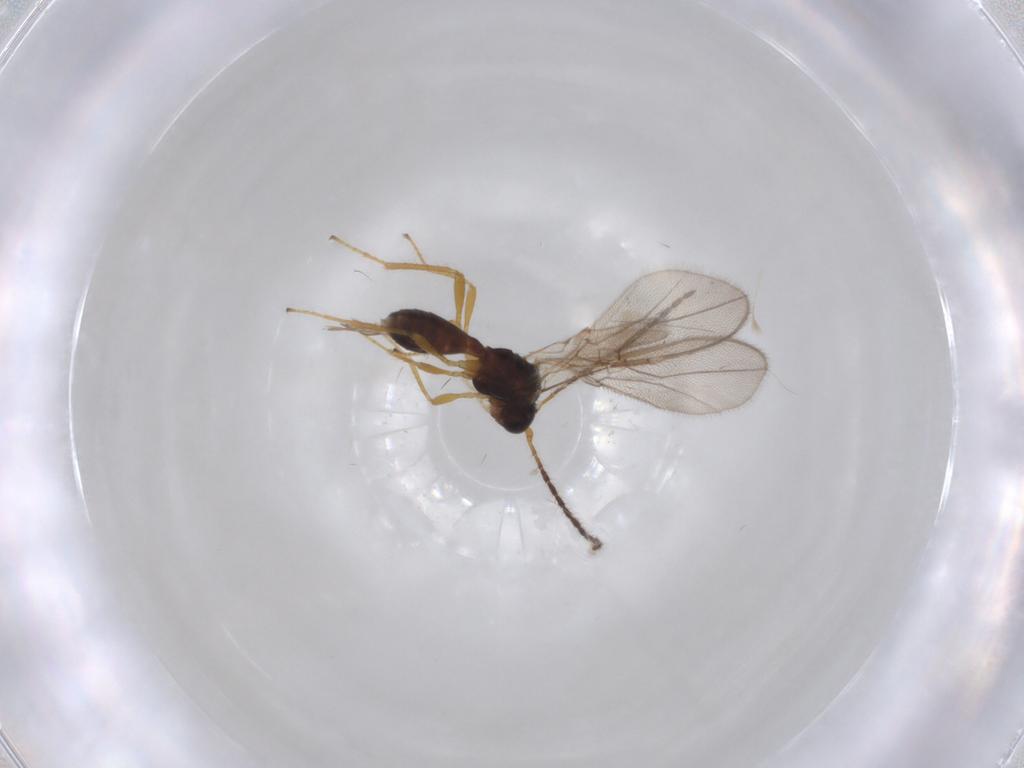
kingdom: Animalia
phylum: Arthropoda
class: Insecta
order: Hymenoptera
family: Braconidae
